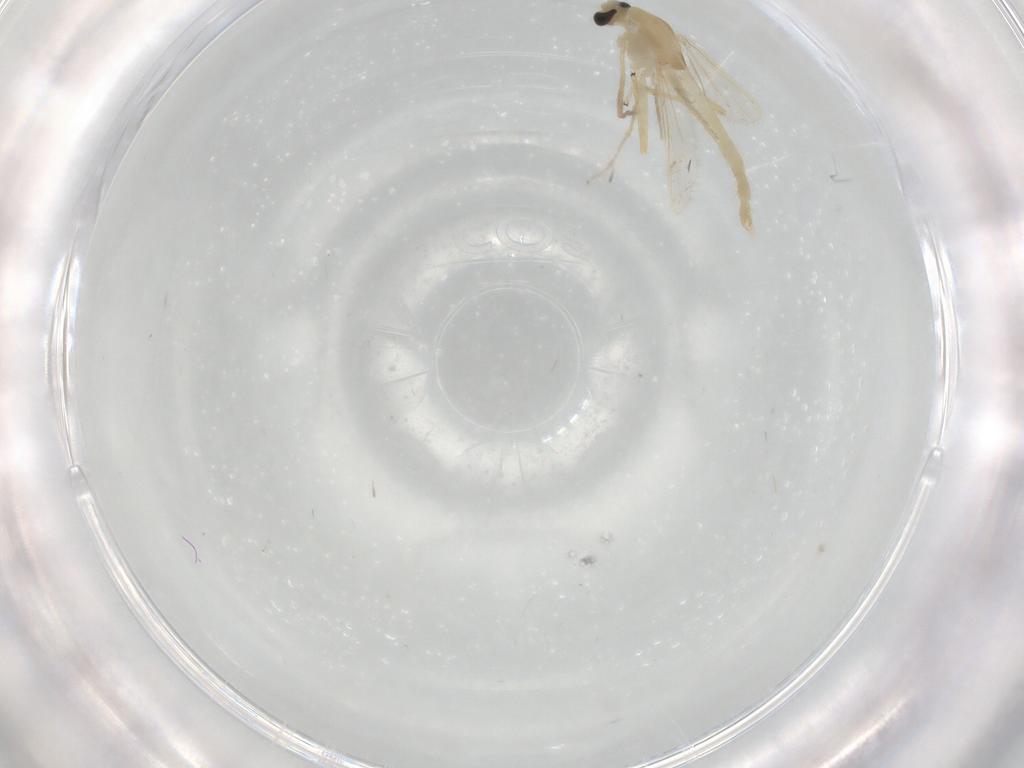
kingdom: Animalia
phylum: Arthropoda
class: Insecta
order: Diptera
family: Chironomidae
